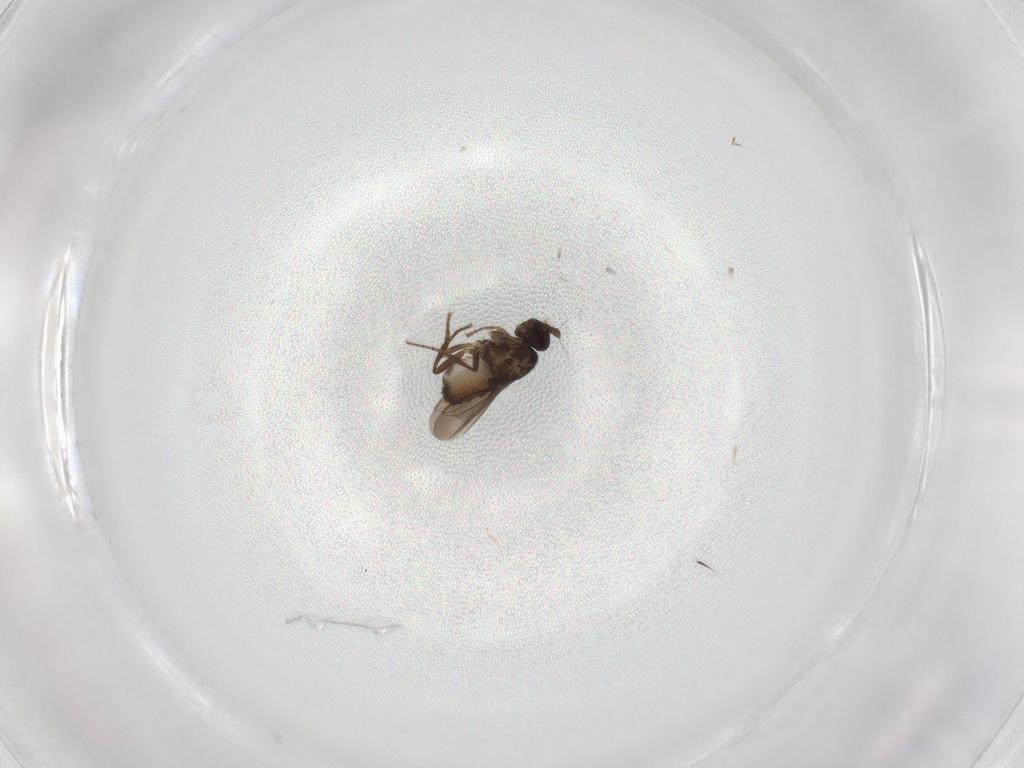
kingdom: Animalia
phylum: Arthropoda
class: Insecta
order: Diptera
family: Sphaeroceridae
